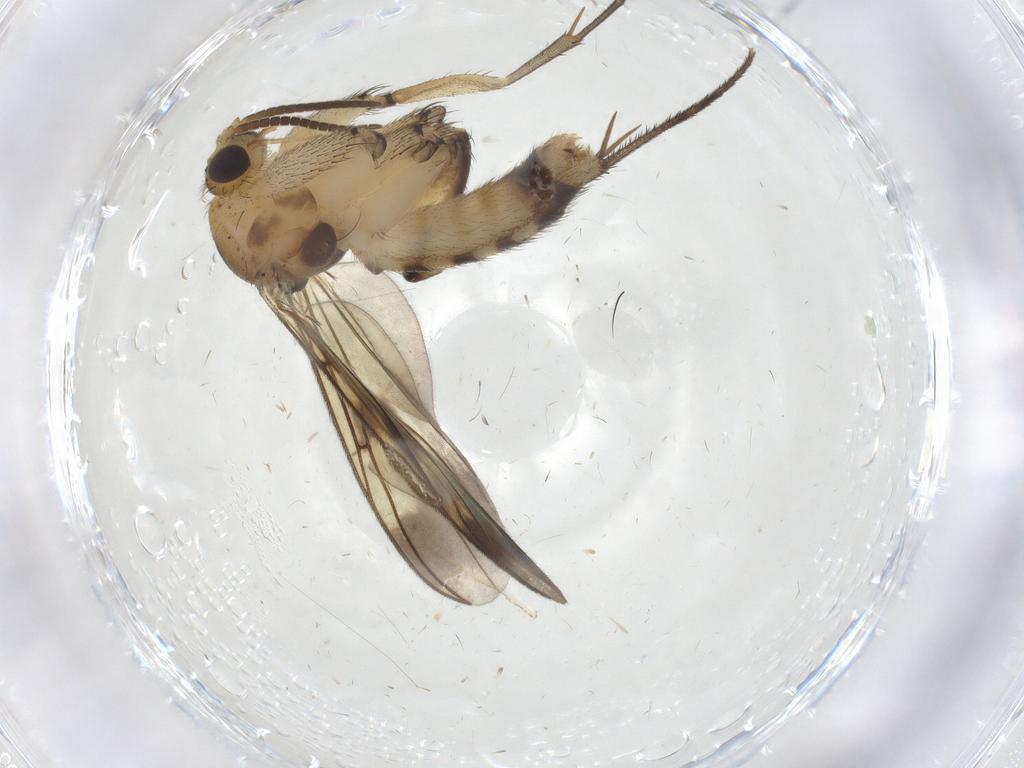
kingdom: Animalia
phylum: Arthropoda
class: Insecta
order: Diptera
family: Mycetophilidae
